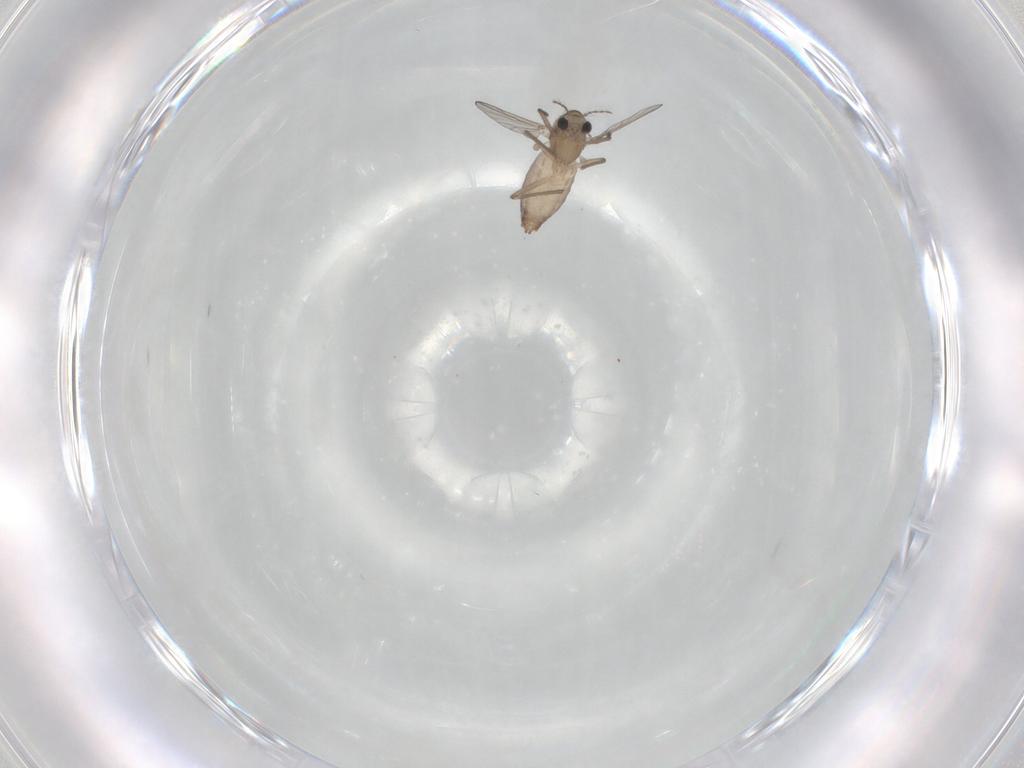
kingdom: Animalia
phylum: Arthropoda
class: Insecta
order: Diptera
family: Chironomidae
